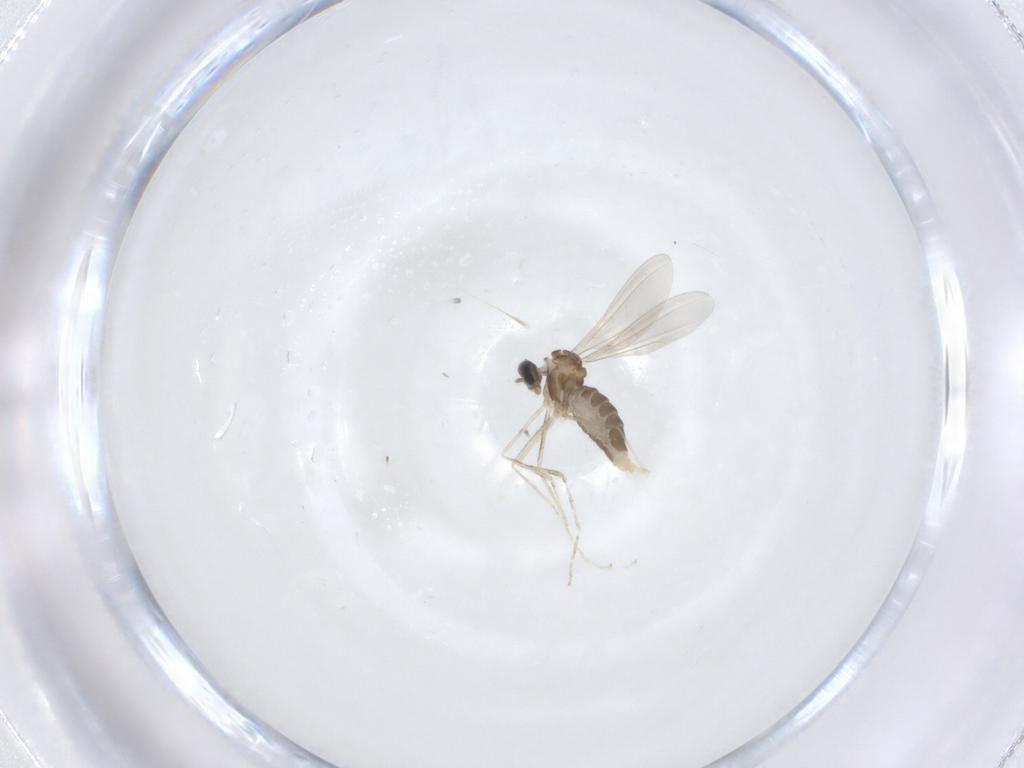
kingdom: Animalia
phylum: Arthropoda
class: Insecta
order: Diptera
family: Cecidomyiidae
